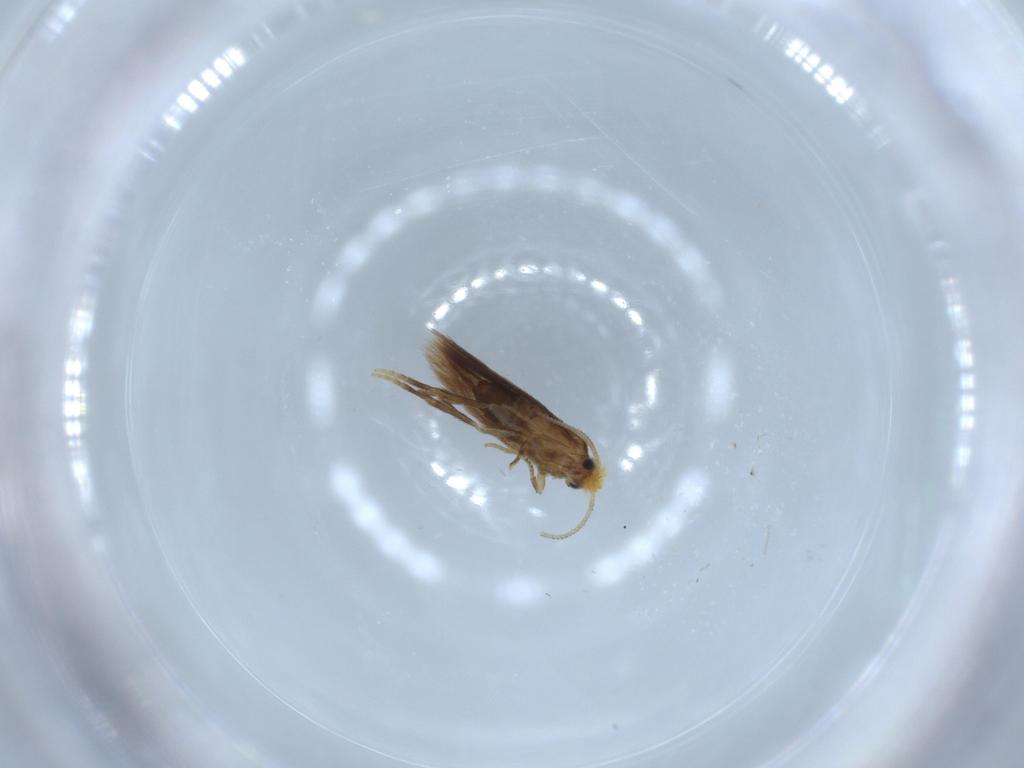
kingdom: Animalia
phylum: Arthropoda
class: Insecta
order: Lepidoptera
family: Nepticulidae
